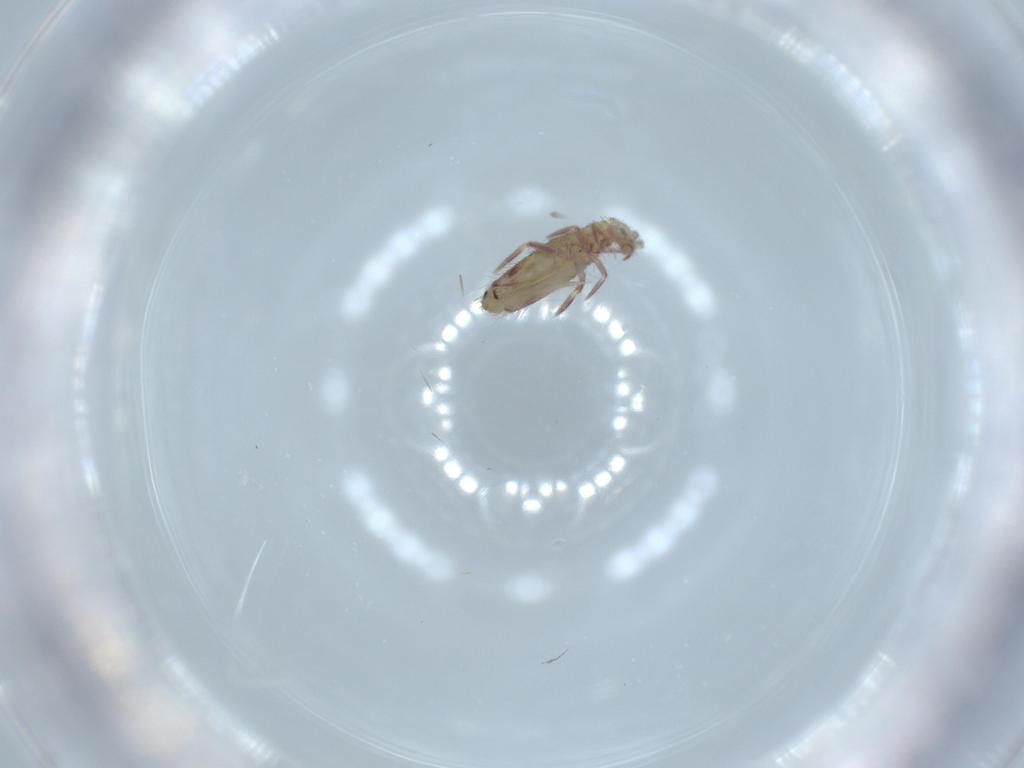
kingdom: Animalia
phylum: Arthropoda
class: Collembola
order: Entomobryomorpha
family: Entomobryidae
